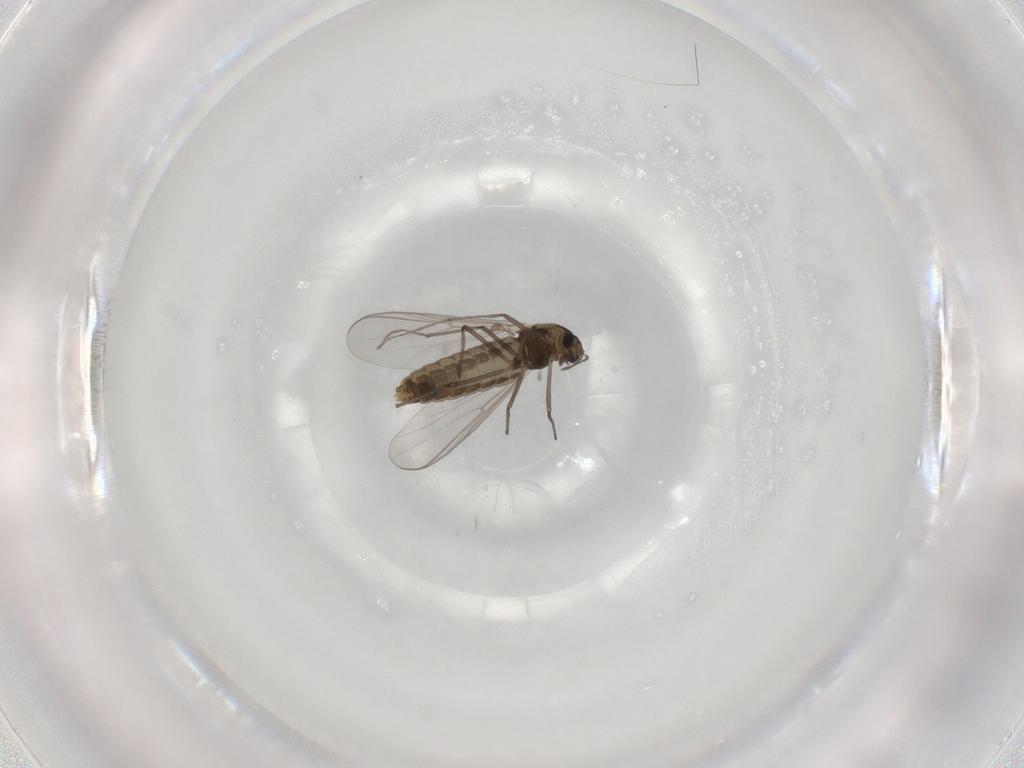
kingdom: Animalia
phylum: Arthropoda
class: Insecta
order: Diptera
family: Chironomidae
